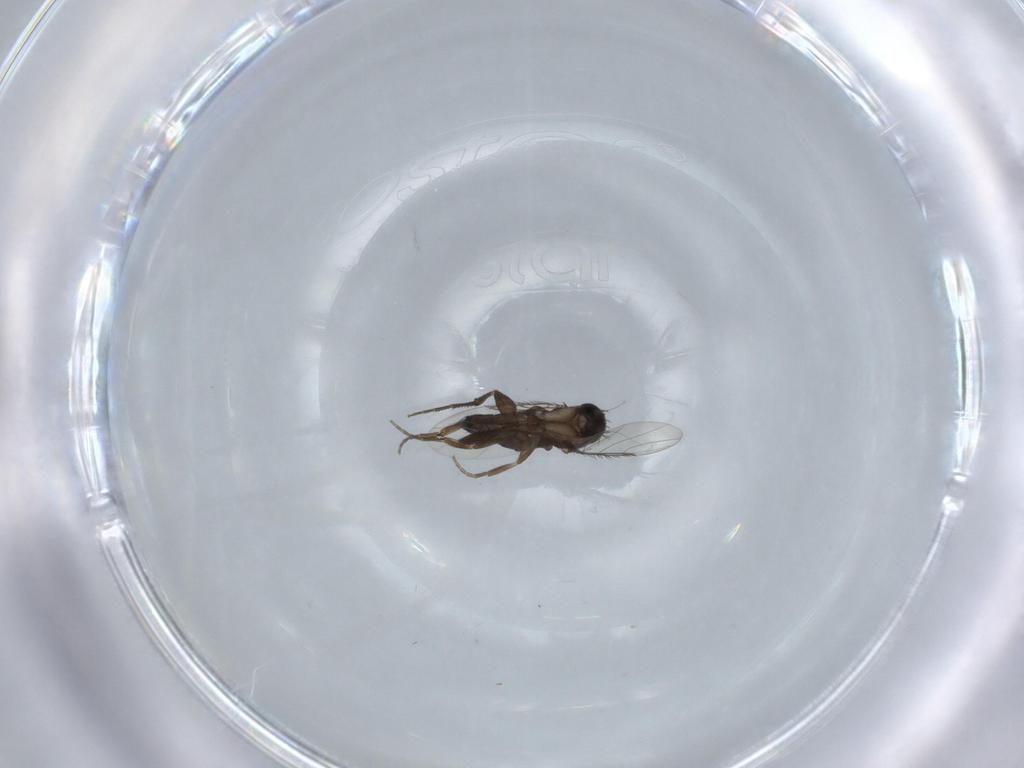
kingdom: Animalia
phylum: Arthropoda
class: Insecta
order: Diptera
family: Phoridae
